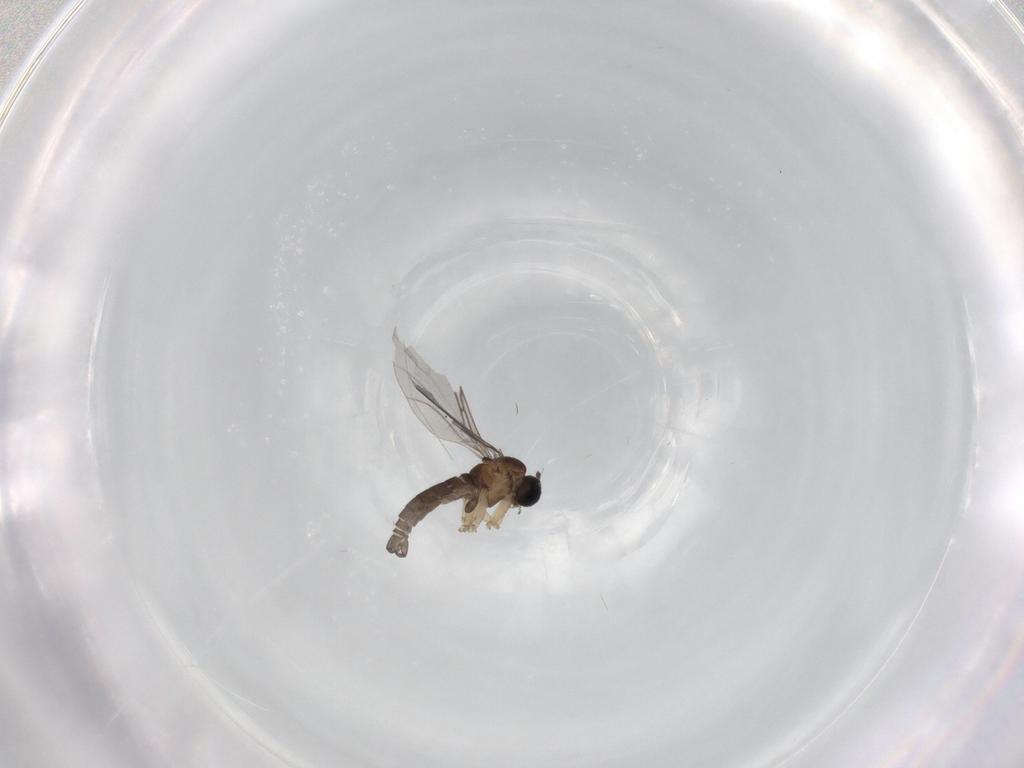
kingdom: Animalia
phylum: Arthropoda
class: Insecta
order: Diptera
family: Sciaridae
